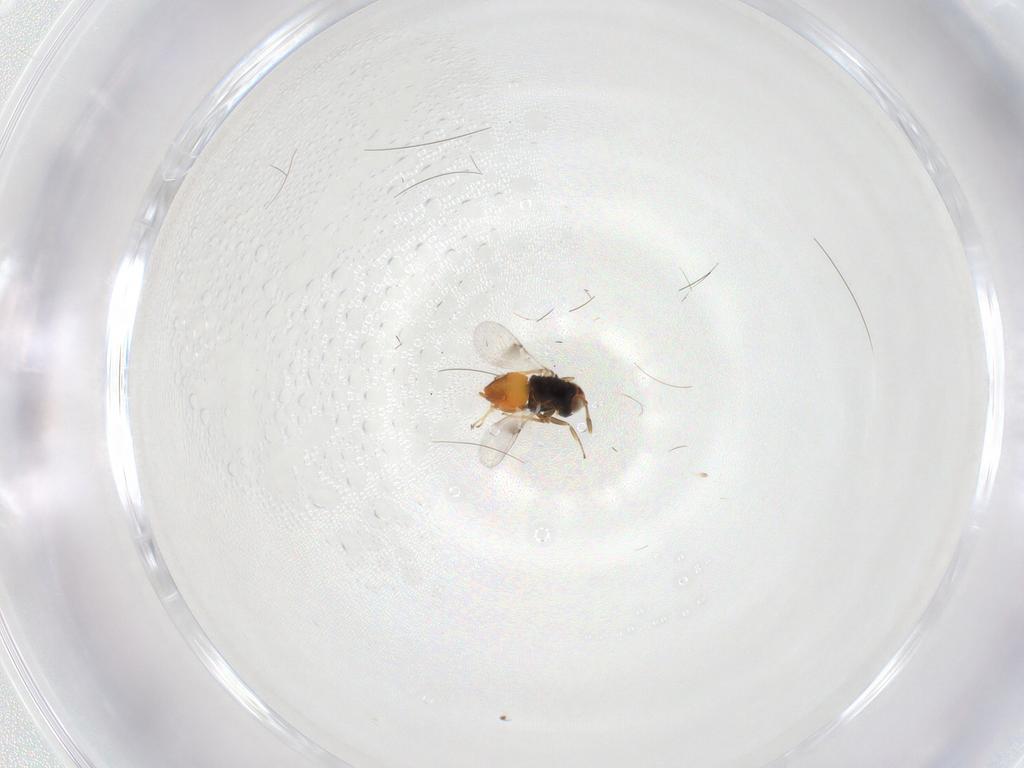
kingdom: Animalia
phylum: Arthropoda
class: Insecta
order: Hymenoptera
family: Encyrtidae
